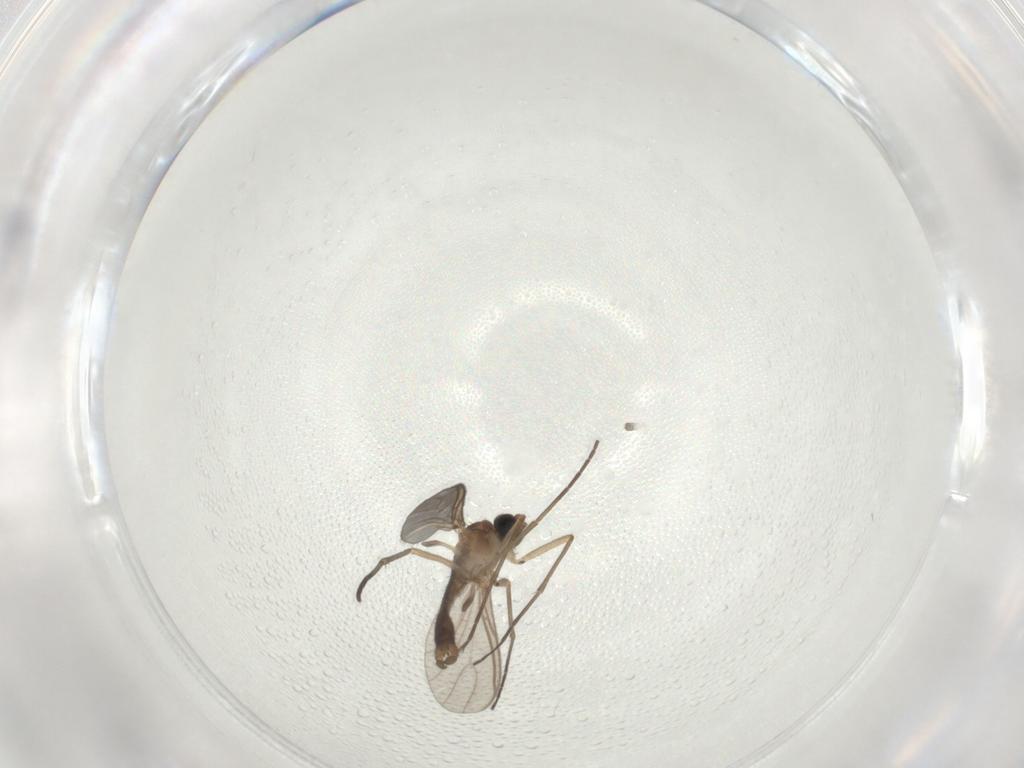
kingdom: Animalia
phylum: Arthropoda
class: Insecta
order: Diptera
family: Sciaridae
